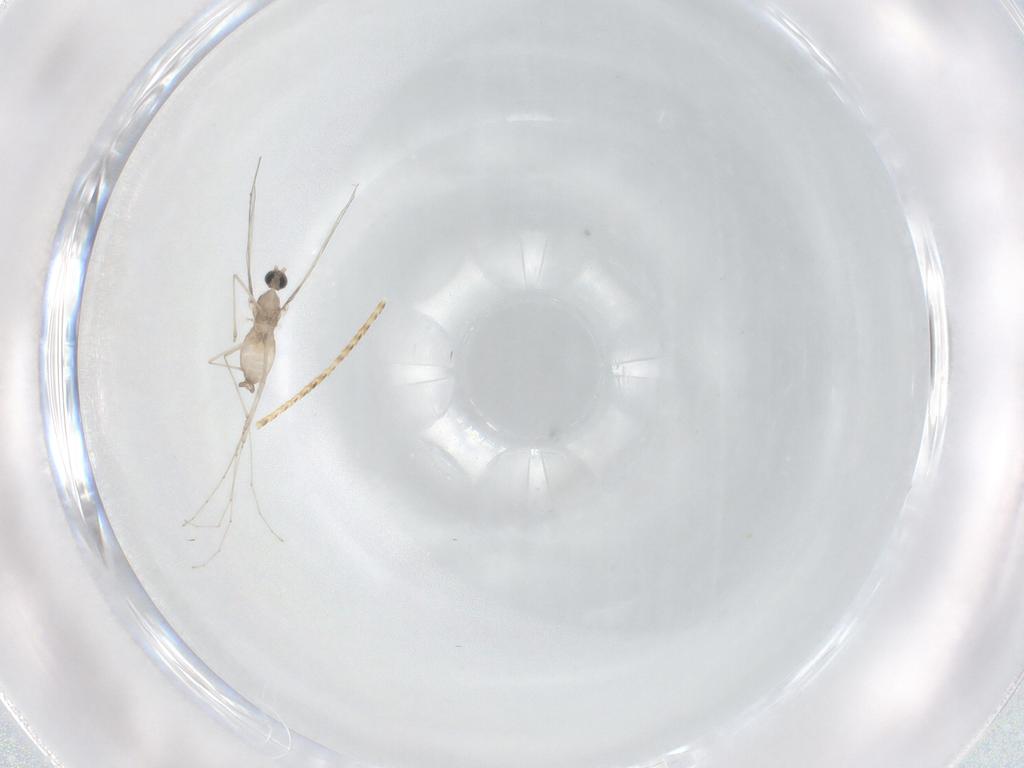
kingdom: Animalia
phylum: Arthropoda
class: Insecta
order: Diptera
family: Cecidomyiidae
